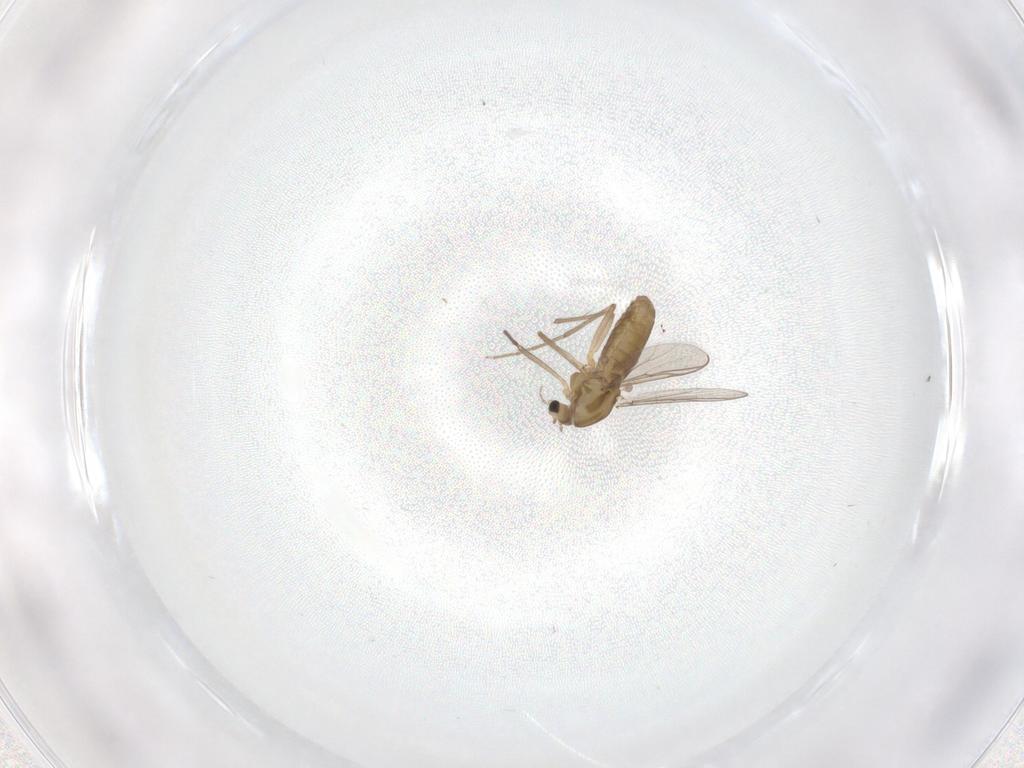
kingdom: Animalia
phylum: Arthropoda
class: Insecta
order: Diptera
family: Chironomidae
